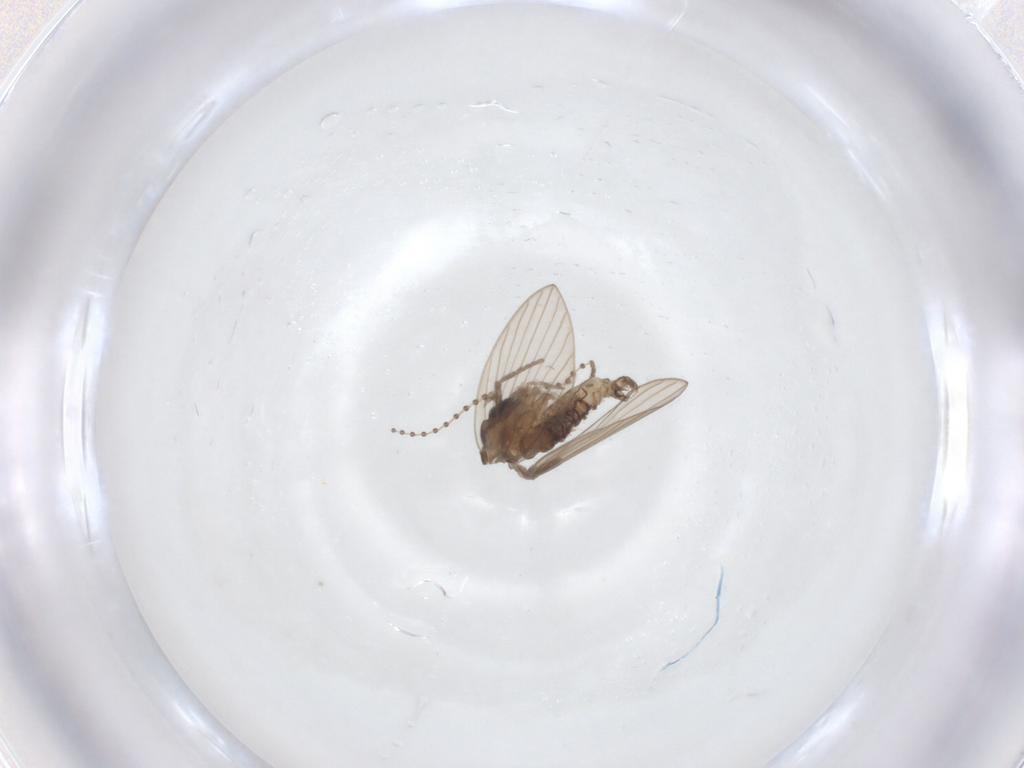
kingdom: Animalia
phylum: Arthropoda
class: Insecta
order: Diptera
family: Psychodidae
